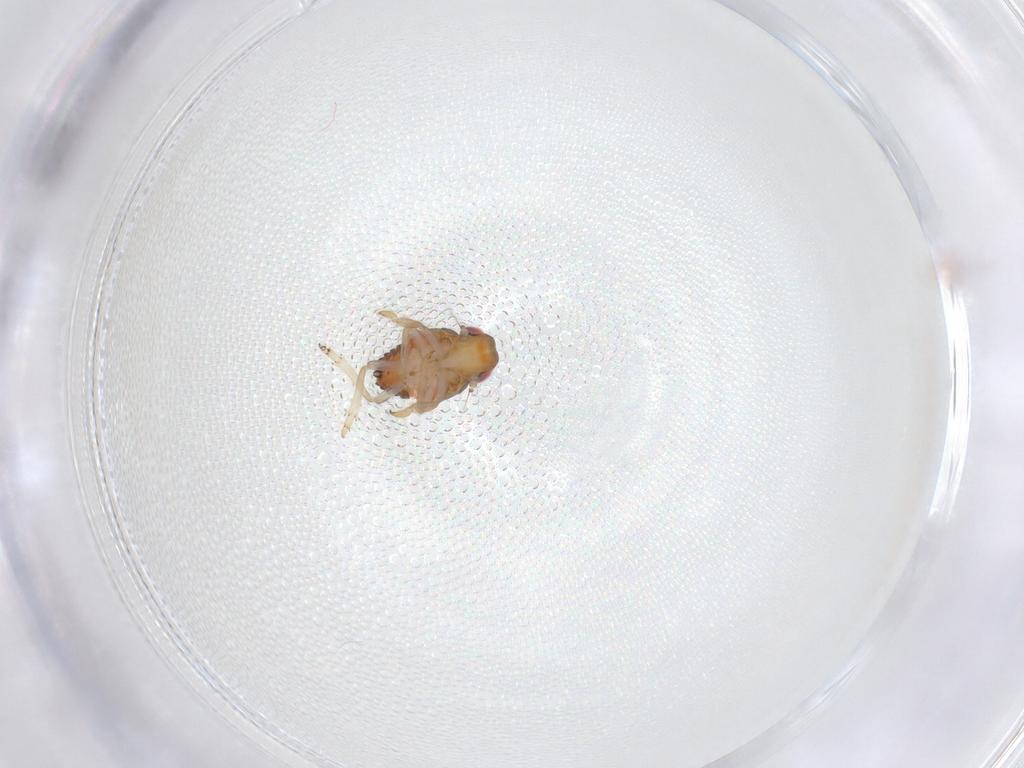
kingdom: Animalia
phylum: Arthropoda
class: Insecta
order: Hemiptera
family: Issidae
